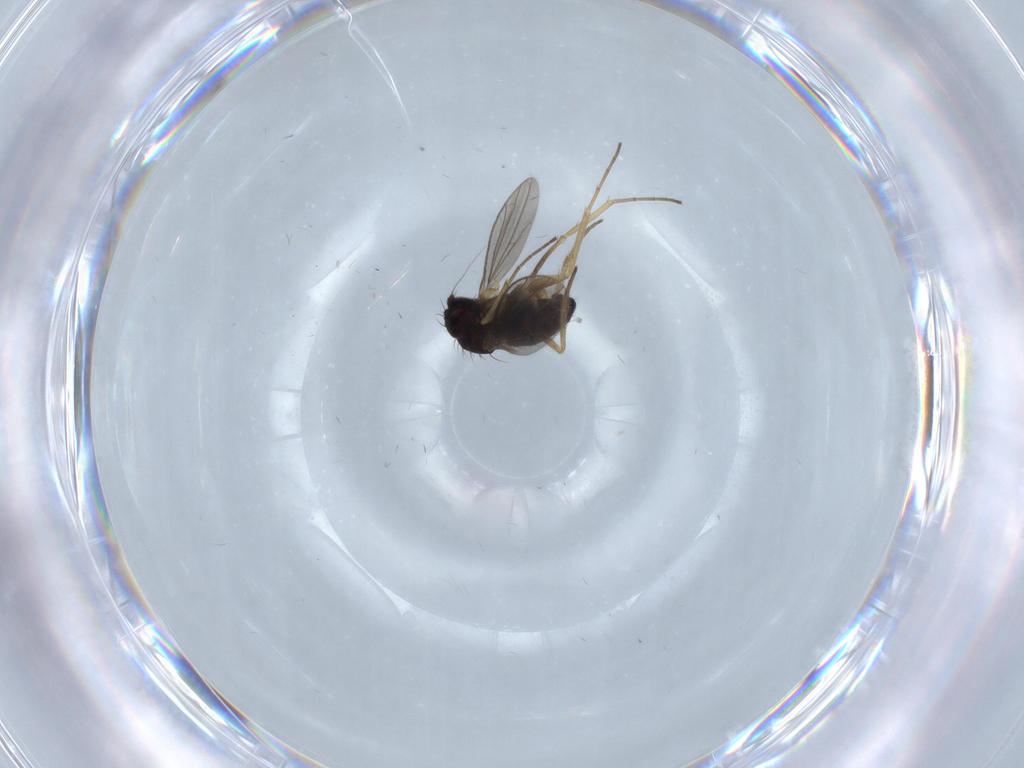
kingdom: Animalia
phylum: Arthropoda
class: Insecta
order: Diptera
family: Dolichopodidae
